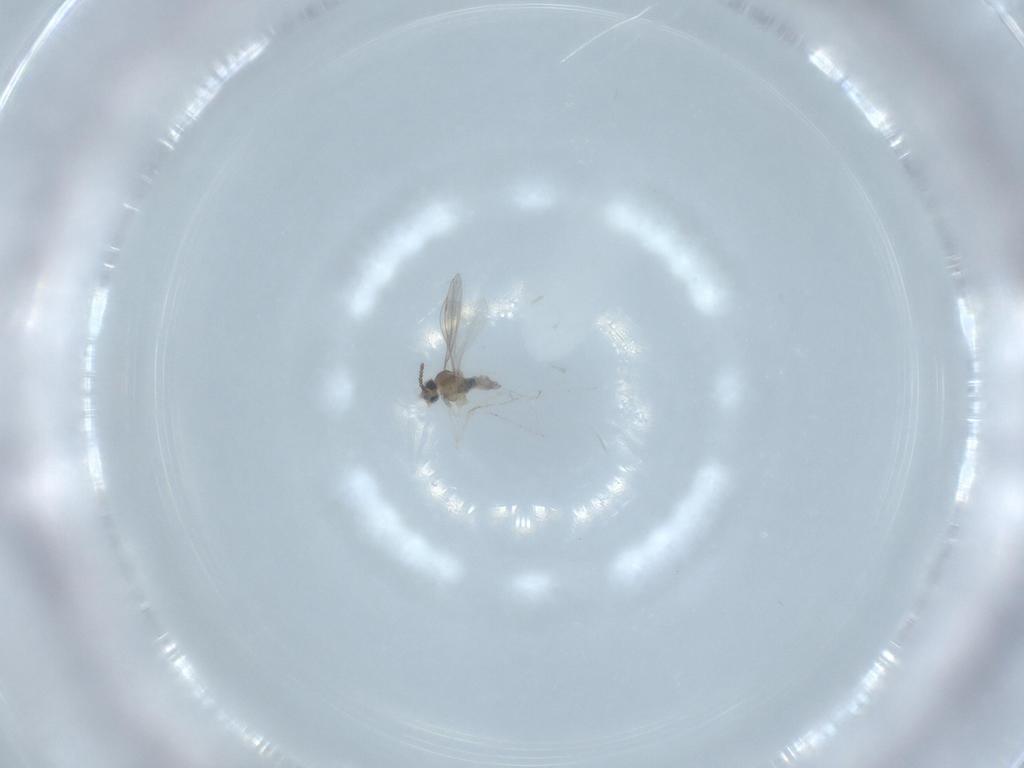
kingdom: Animalia
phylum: Arthropoda
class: Insecta
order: Diptera
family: Cecidomyiidae
